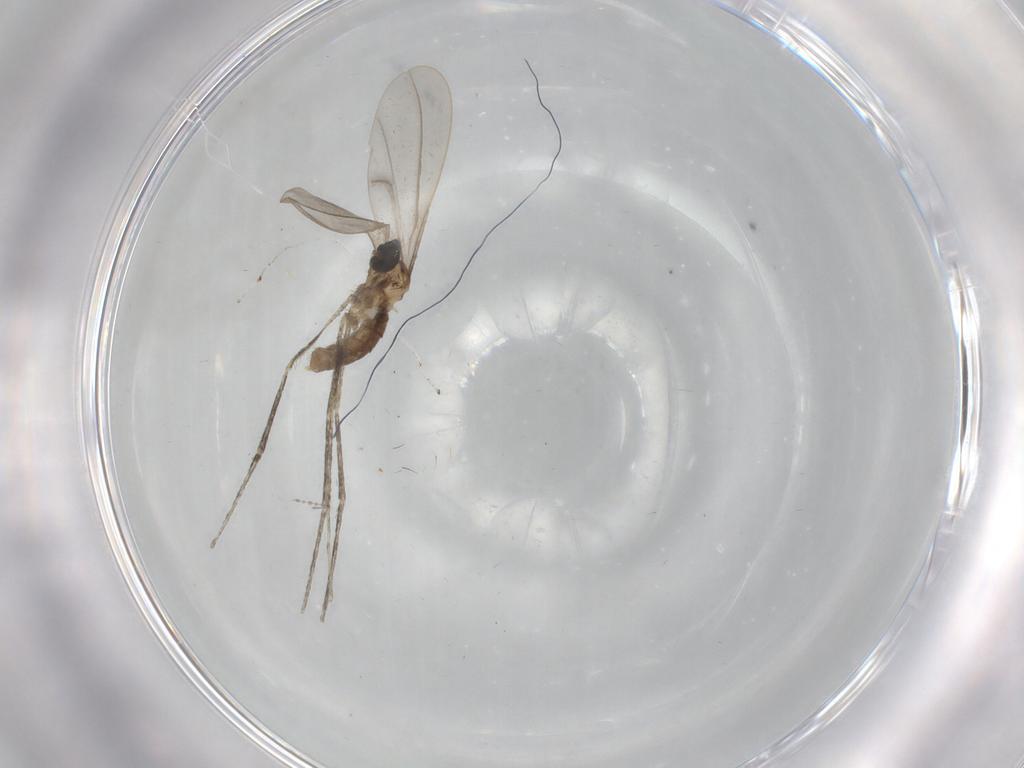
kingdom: Animalia
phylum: Arthropoda
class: Insecta
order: Diptera
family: Cecidomyiidae
